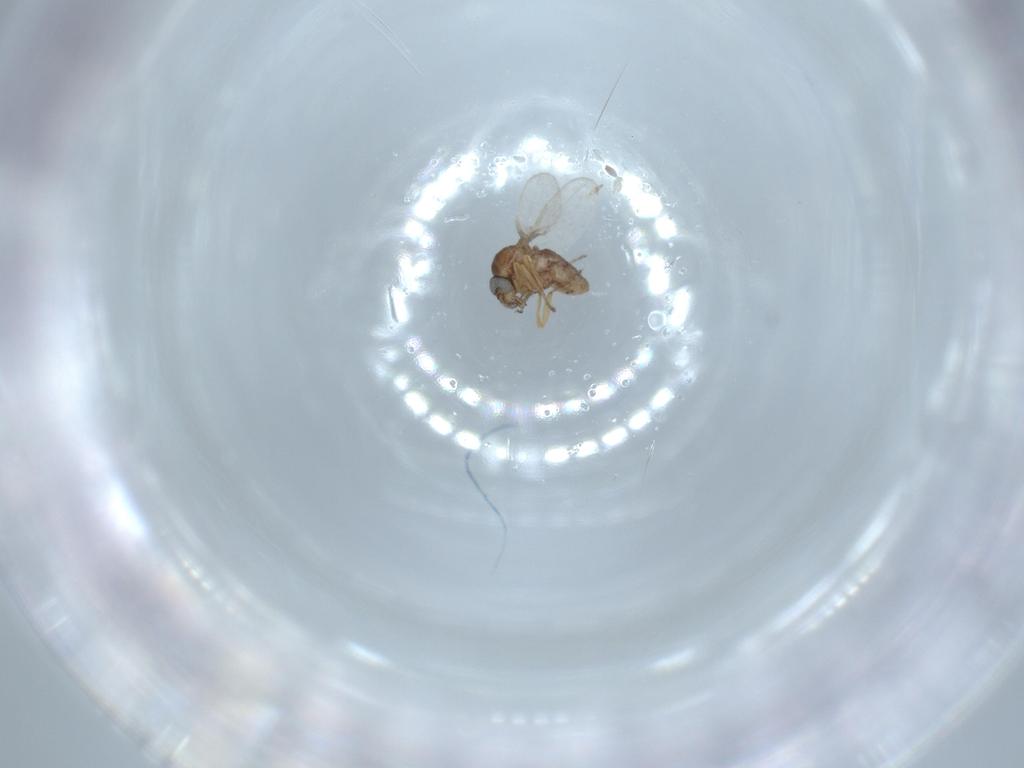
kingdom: Animalia
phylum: Arthropoda
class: Insecta
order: Diptera
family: Ceratopogonidae
